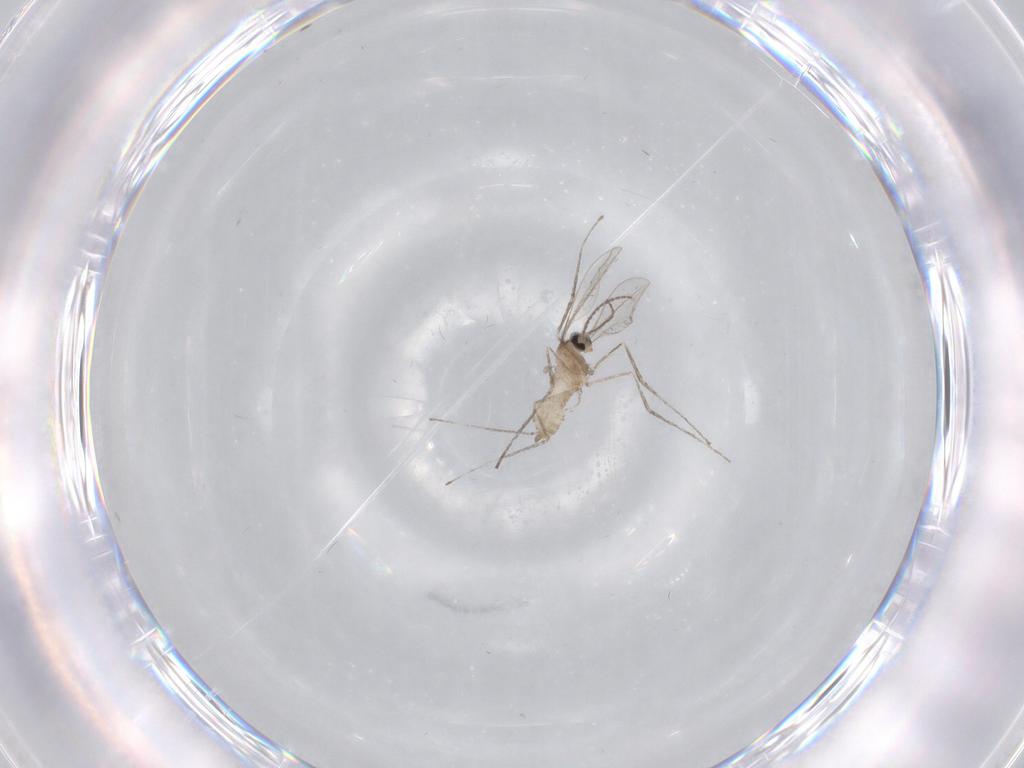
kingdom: Animalia
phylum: Arthropoda
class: Insecta
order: Diptera
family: Cecidomyiidae
